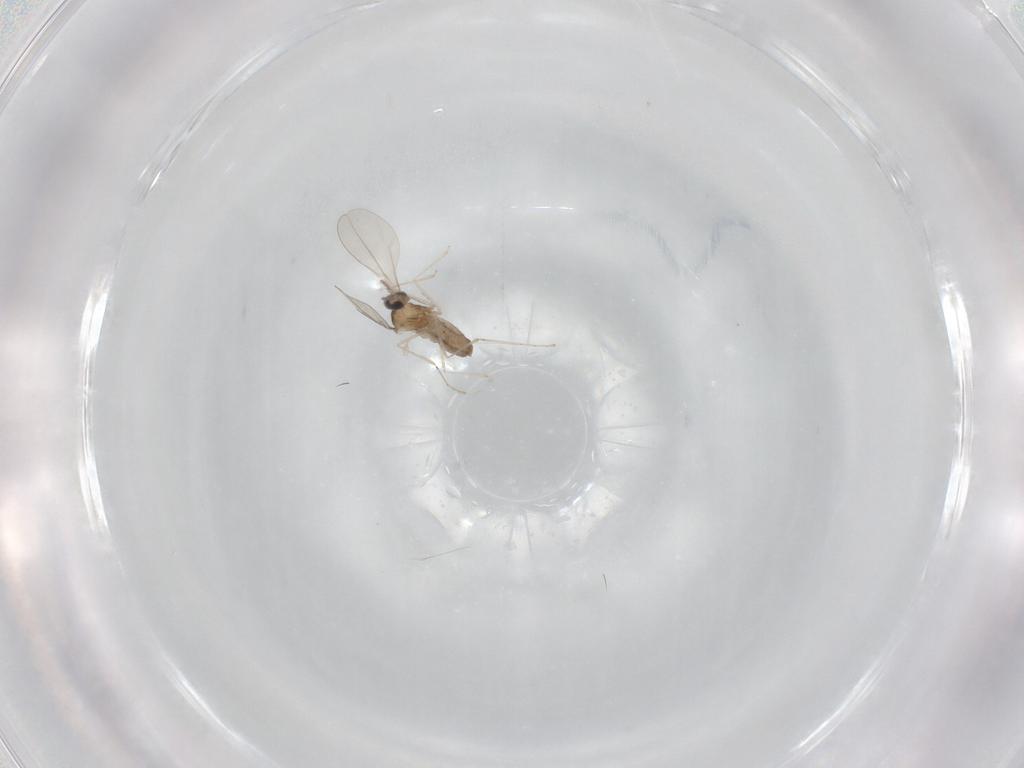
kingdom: Animalia
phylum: Arthropoda
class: Insecta
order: Diptera
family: Cecidomyiidae
